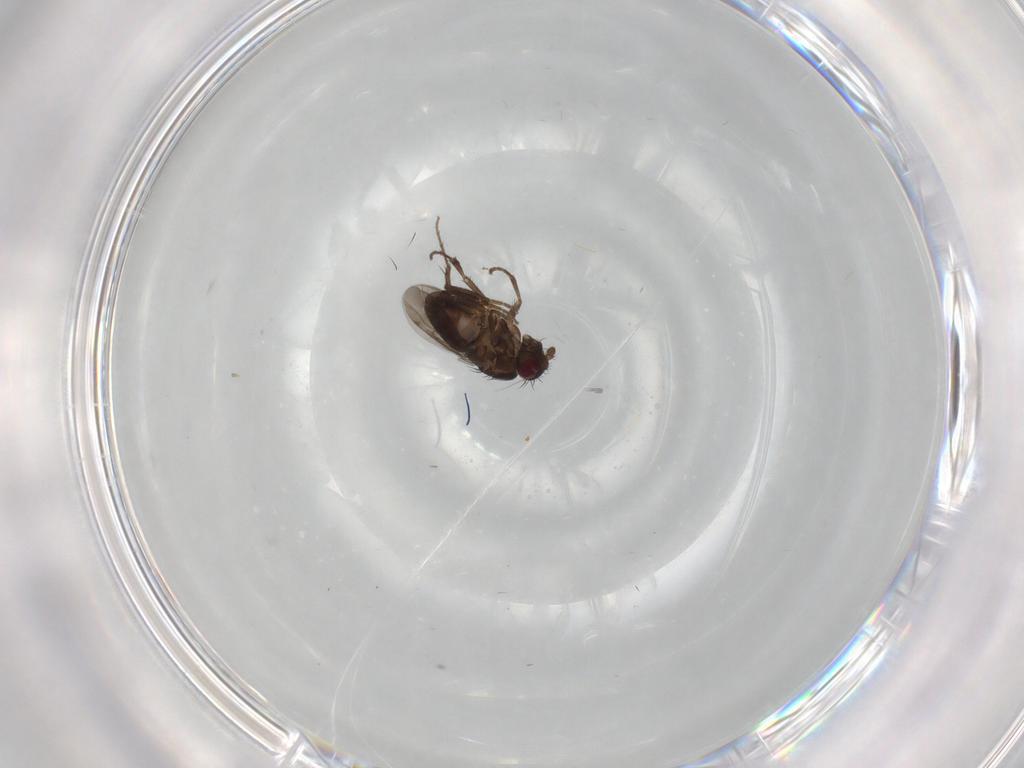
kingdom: Animalia
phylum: Arthropoda
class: Insecta
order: Diptera
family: Sphaeroceridae
